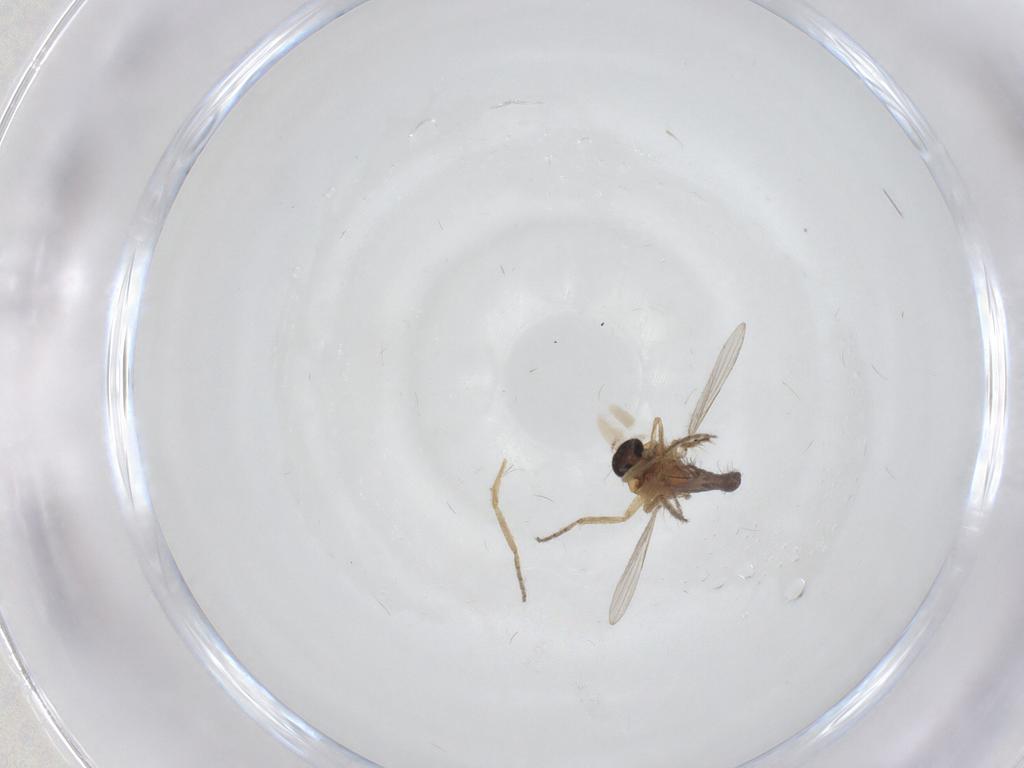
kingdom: Animalia
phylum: Arthropoda
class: Insecta
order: Diptera
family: Phoridae
